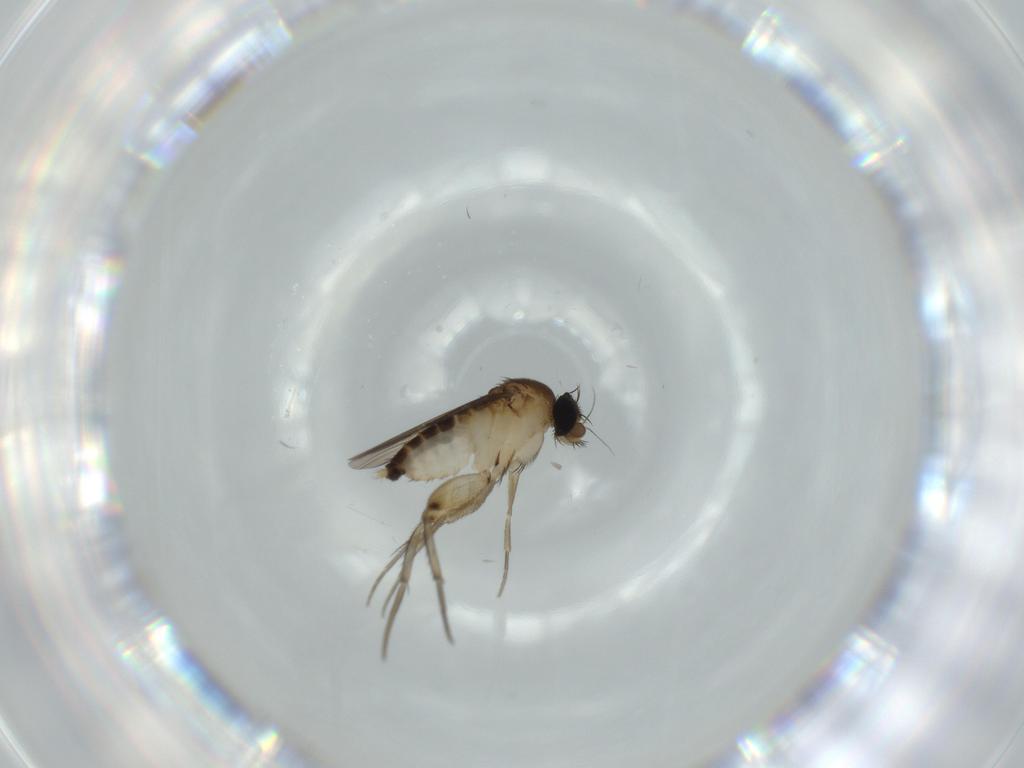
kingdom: Animalia
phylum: Arthropoda
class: Insecta
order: Diptera
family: Phoridae
